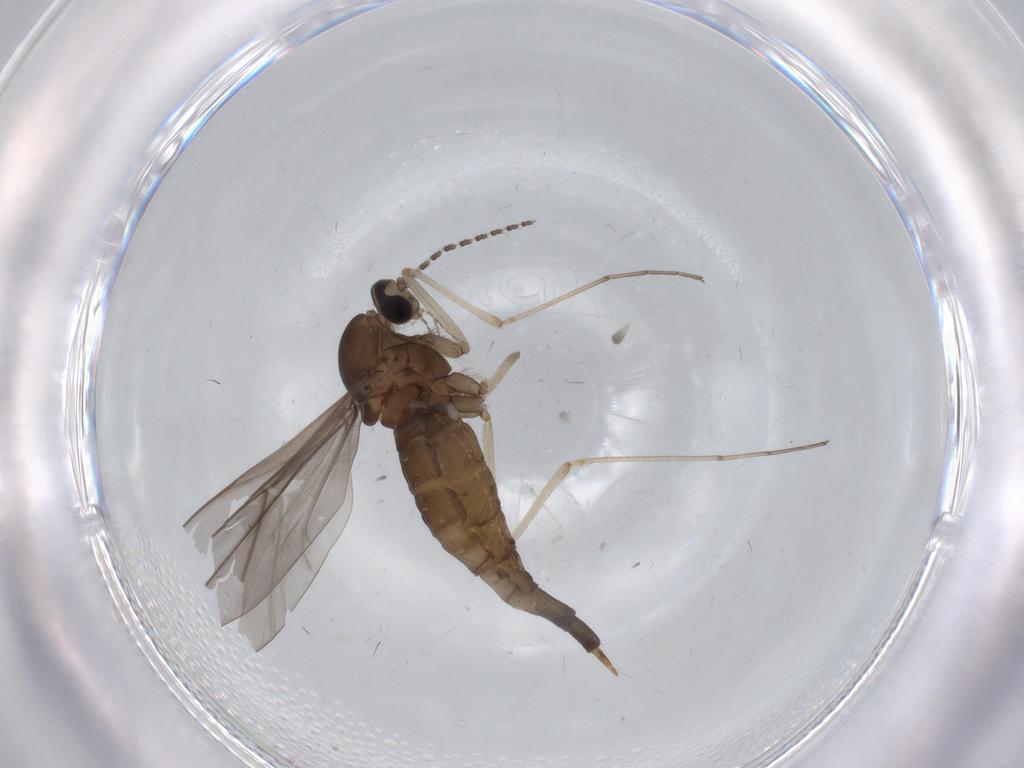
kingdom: Animalia
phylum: Arthropoda
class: Insecta
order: Diptera
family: Cecidomyiidae
